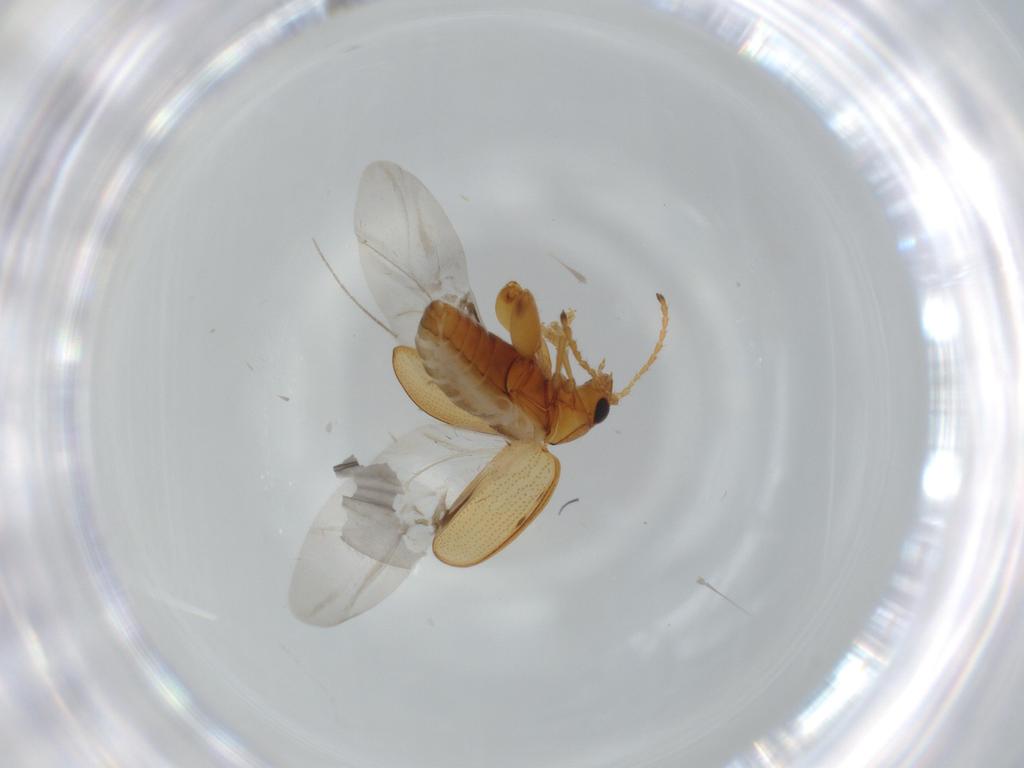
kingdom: Animalia
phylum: Arthropoda
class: Insecta
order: Coleoptera
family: Chrysomelidae
